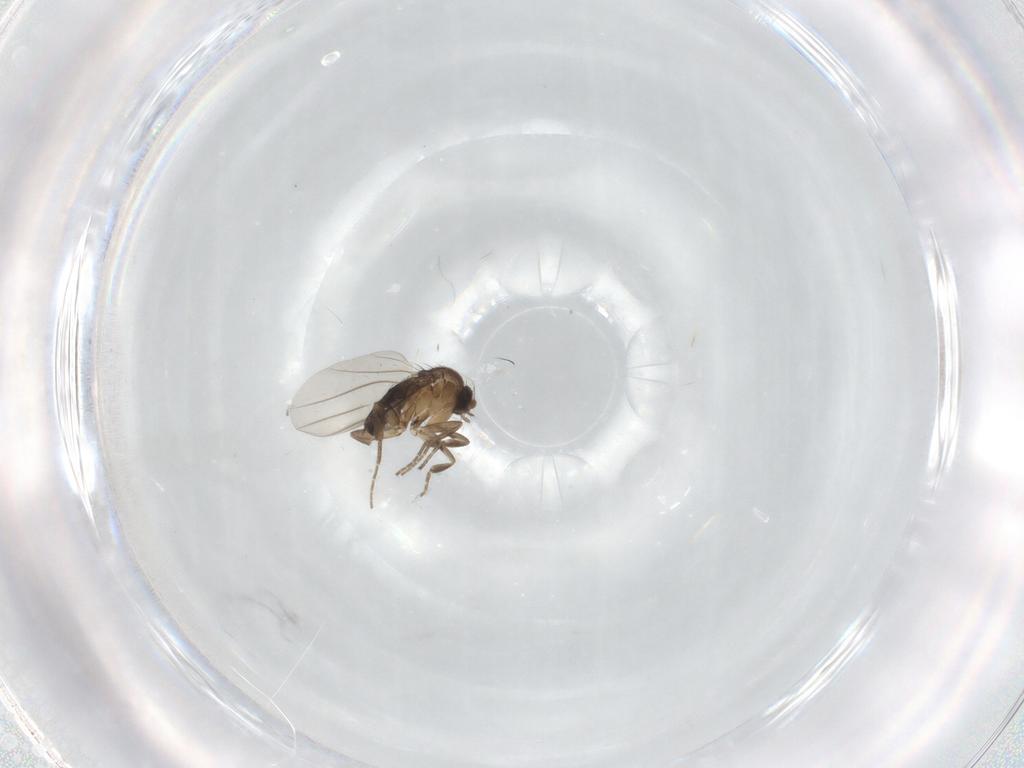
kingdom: Animalia
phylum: Arthropoda
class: Insecta
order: Diptera
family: Phoridae
